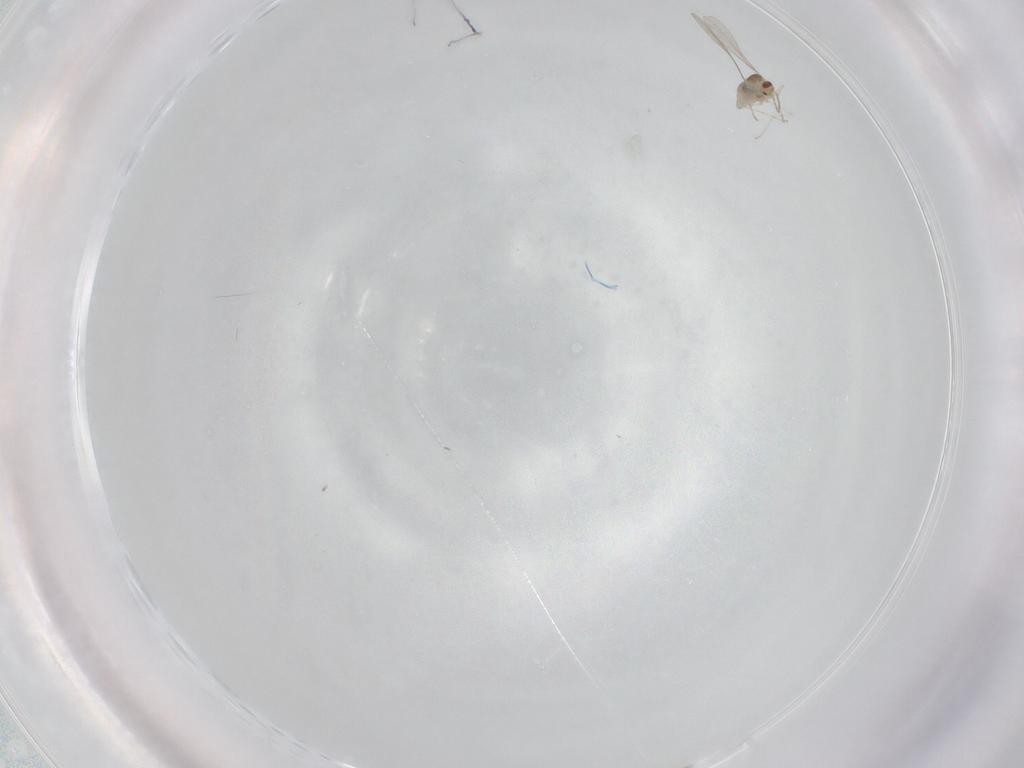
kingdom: Animalia
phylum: Arthropoda
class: Insecta
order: Diptera
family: Cecidomyiidae
